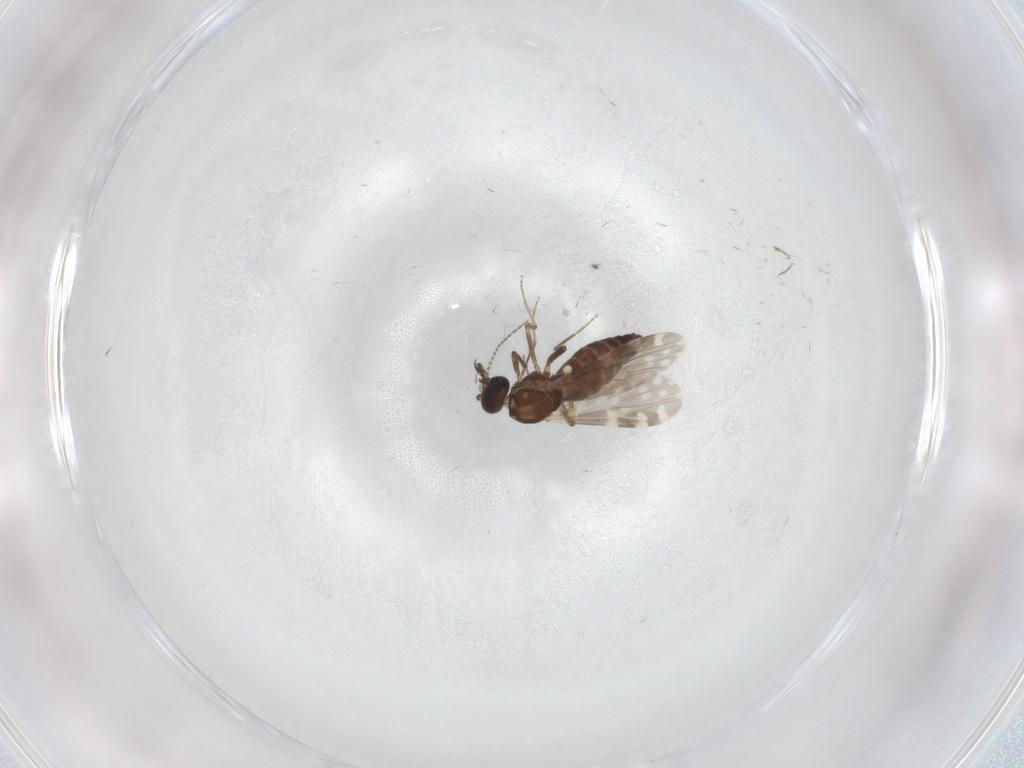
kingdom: Animalia
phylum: Arthropoda
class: Insecta
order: Diptera
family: Ceratopogonidae
